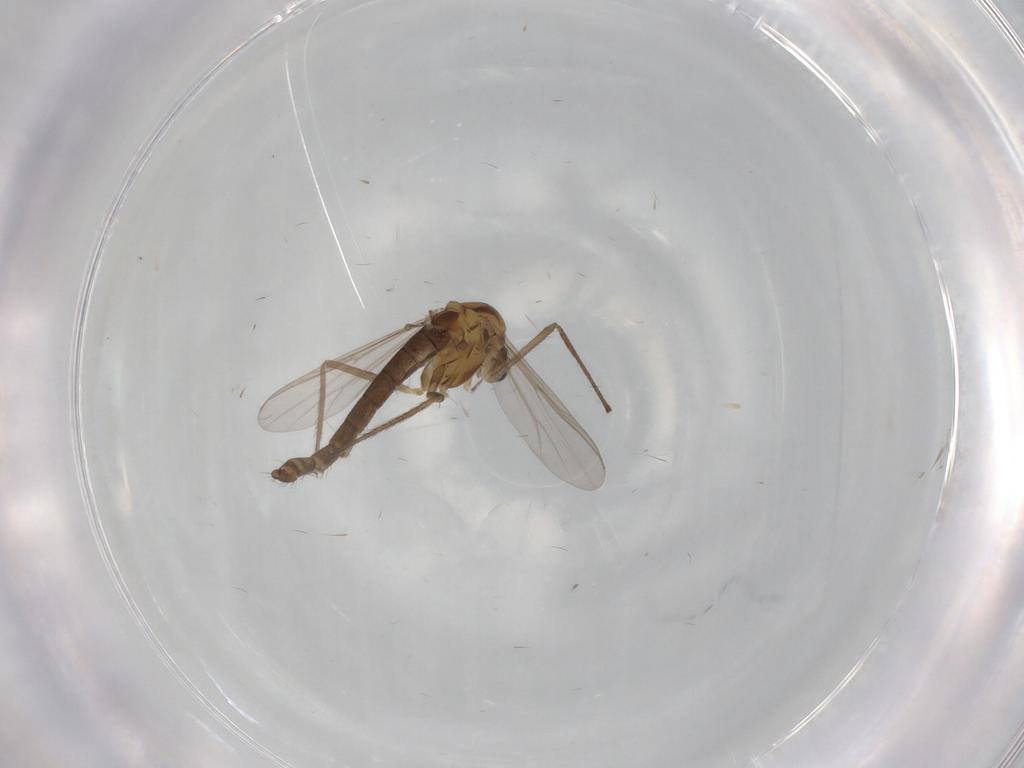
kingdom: Animalia
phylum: Arthropoda
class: Insecta
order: Diptera
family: Chironomidae
